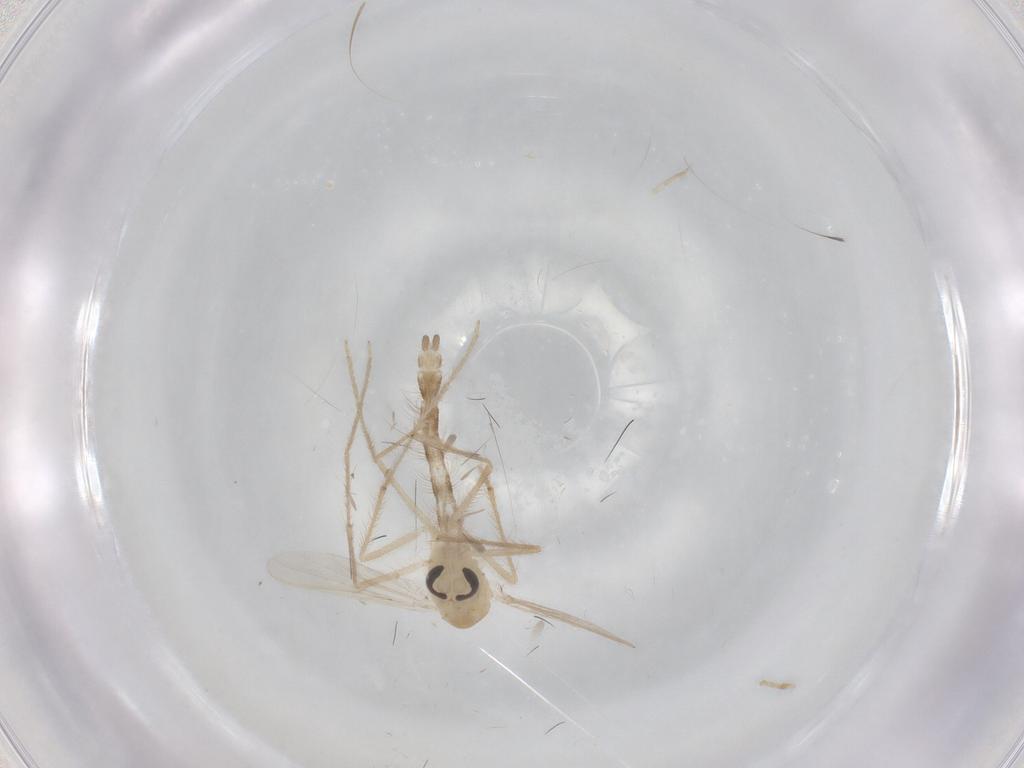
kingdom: Animalia
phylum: Arthropoda
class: Insecta
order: Diptera
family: Chironomidae
